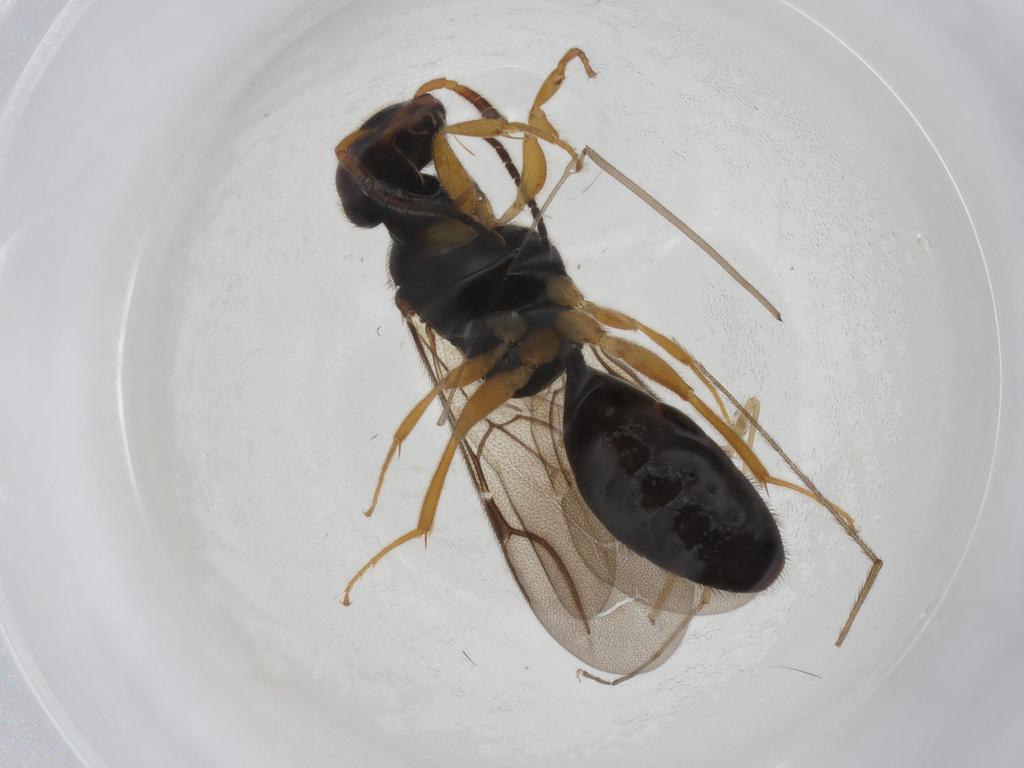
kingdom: Animalia
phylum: Arthropoda
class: Insecta
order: Hymenoptera
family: Bethylidae
